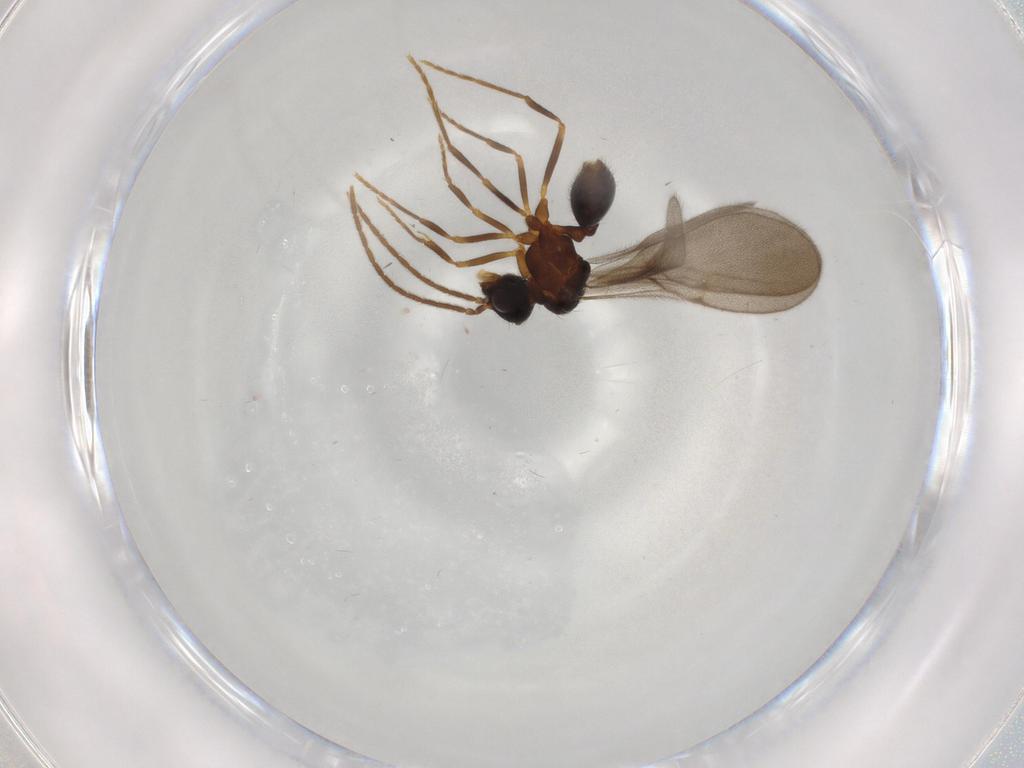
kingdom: Animalia
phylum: Arthropoda
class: Insecta
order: Hymenoptera
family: Formicidae
